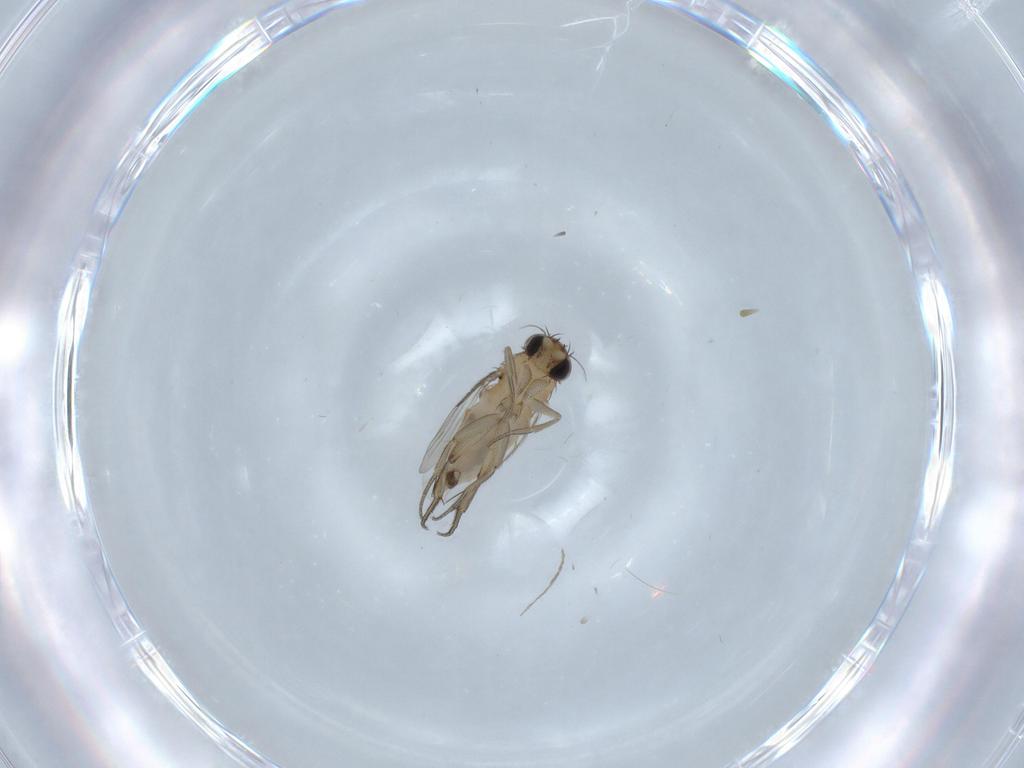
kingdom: Animalia
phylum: Arthropoda
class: Insecta
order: Diptera
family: Phoridae
